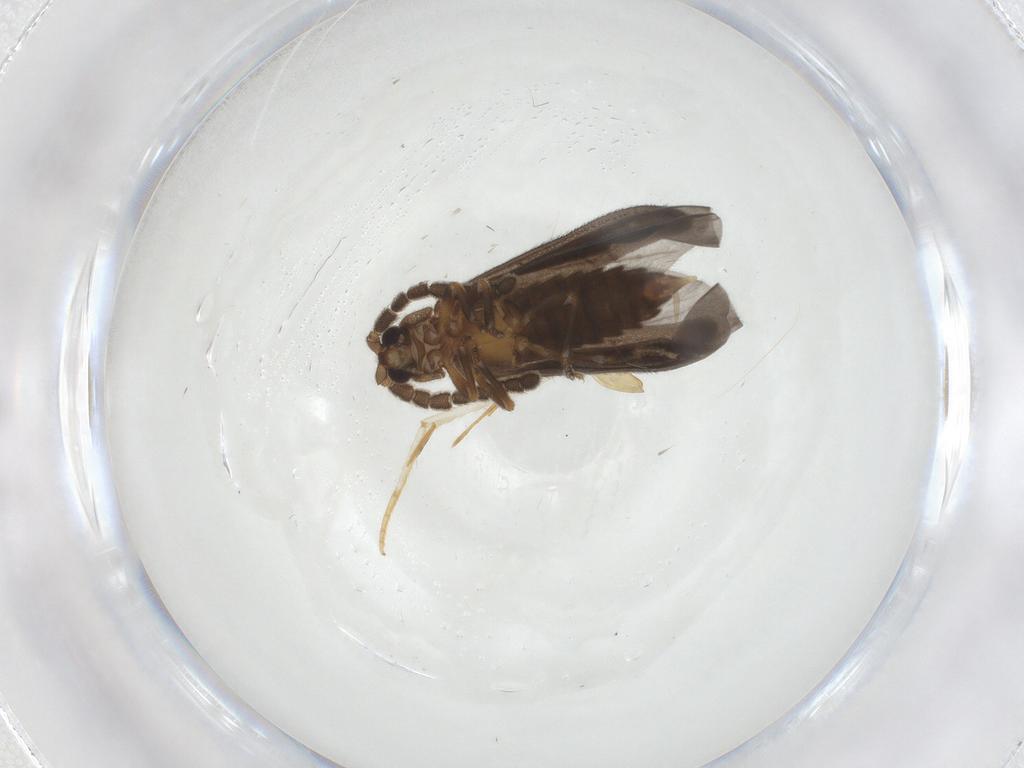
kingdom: Animalia
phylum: Arthropoda
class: Insecta
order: Coleoptera
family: Lycidae
